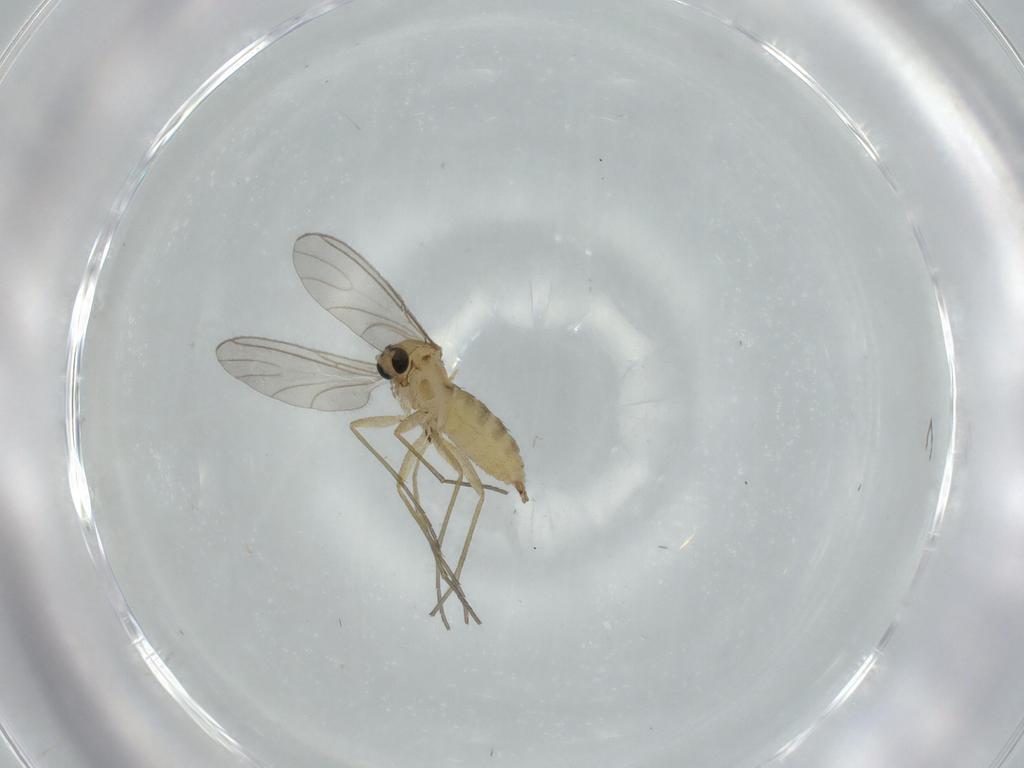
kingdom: Animalia
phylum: Arthropoda
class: Insecta
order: Diptera
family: Sciaridae
